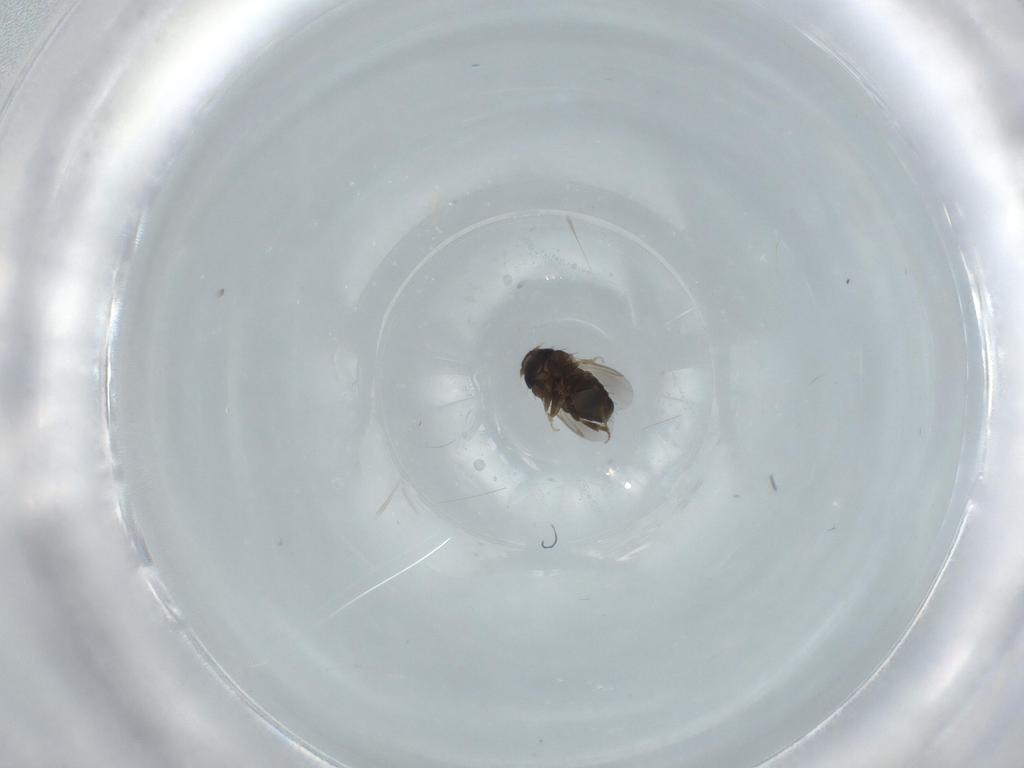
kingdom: Animalia
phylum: Arthropoda
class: Insecta
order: Diptera
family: Phoridae
